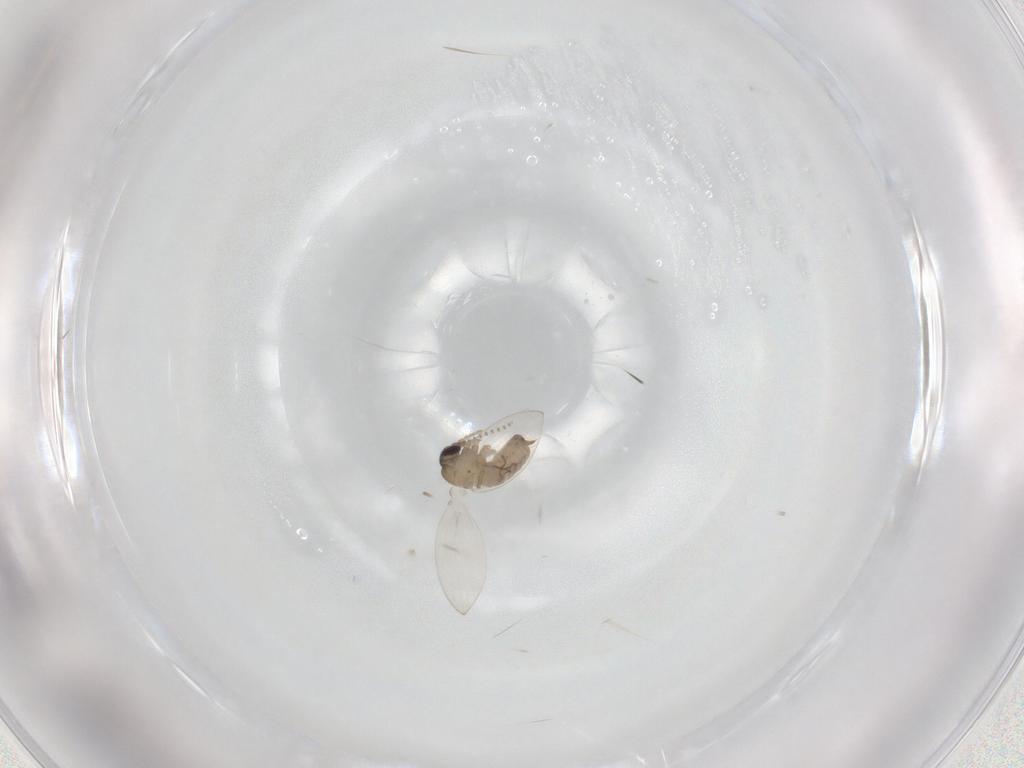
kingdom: Animalia
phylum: Arthropoda
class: Insecta
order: Diptera
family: Psychodidae
